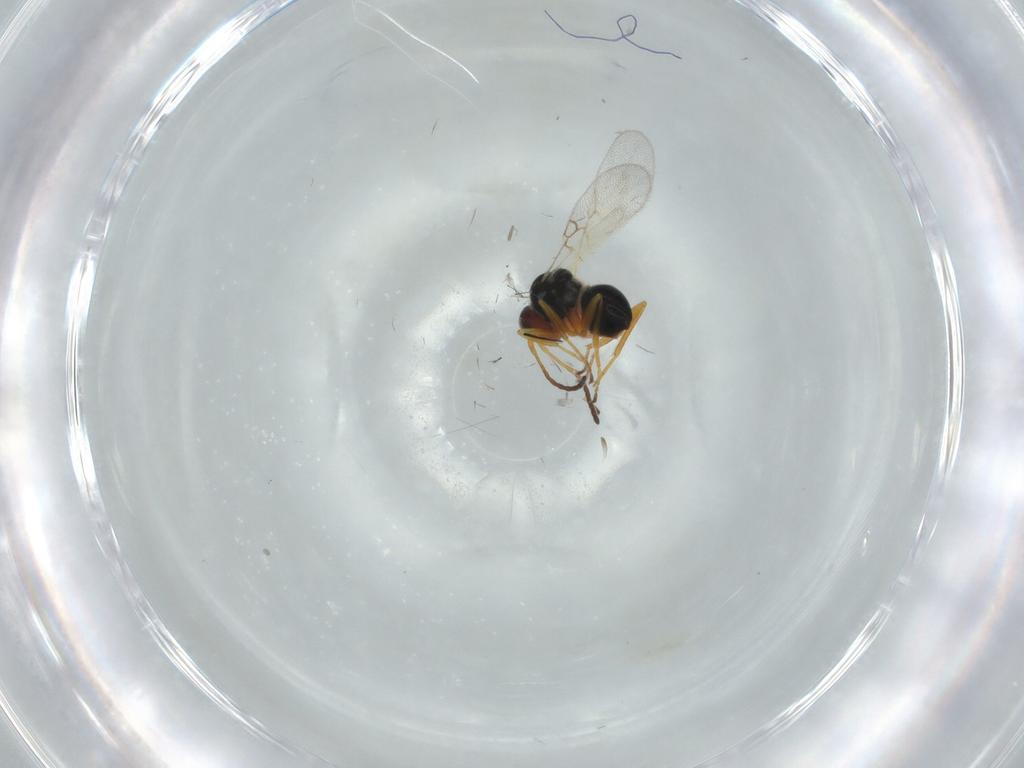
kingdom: Animalia
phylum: Arthropoda
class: Insecta
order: Hymenoptera
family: Figitidae
